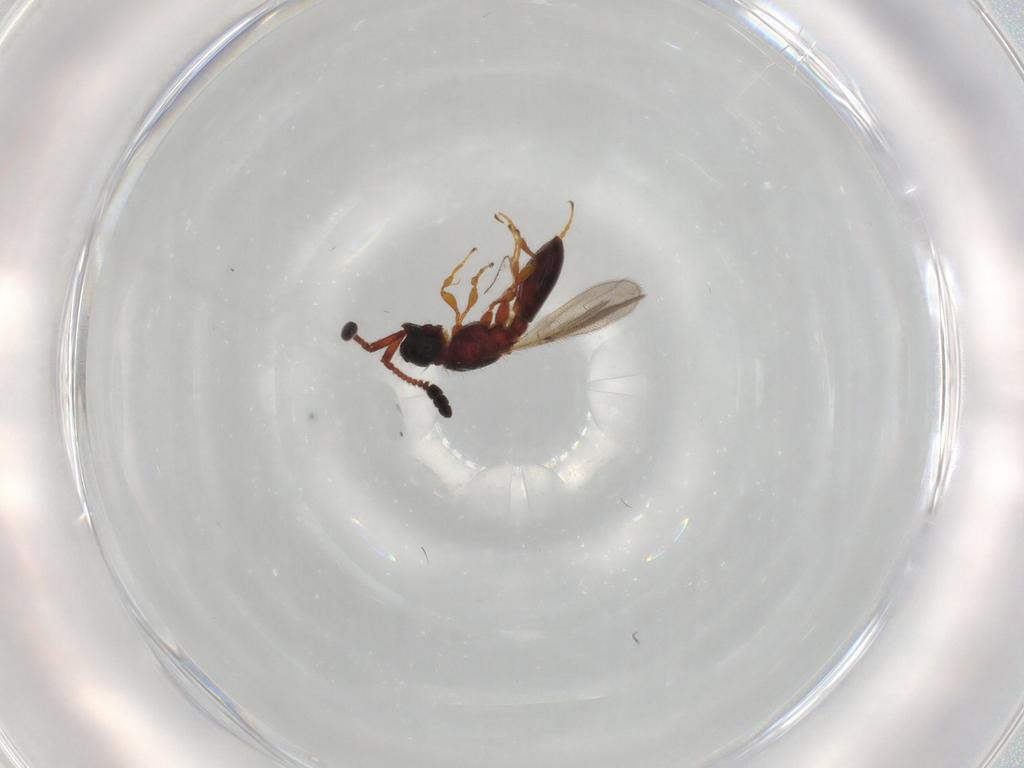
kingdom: Animalia
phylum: Arthropoda
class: Insecta
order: Hymenoptera
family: Diapriidae
